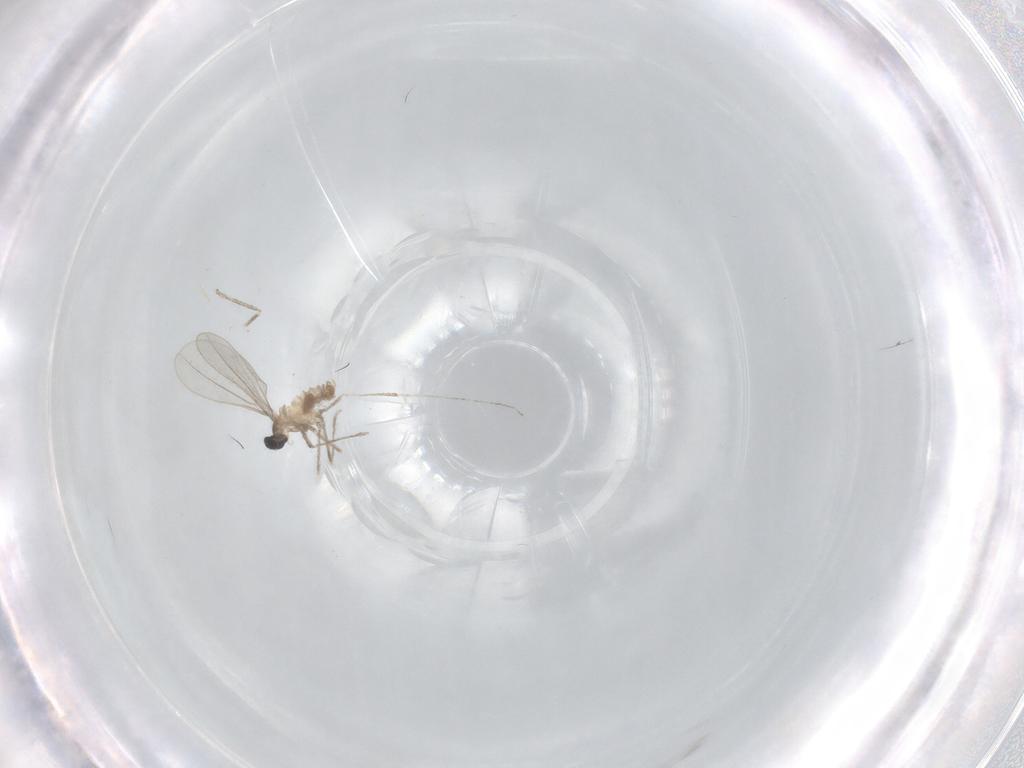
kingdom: Animalia
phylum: Arthropoda
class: Insecta
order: Diptera
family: Cecidomyiidae
